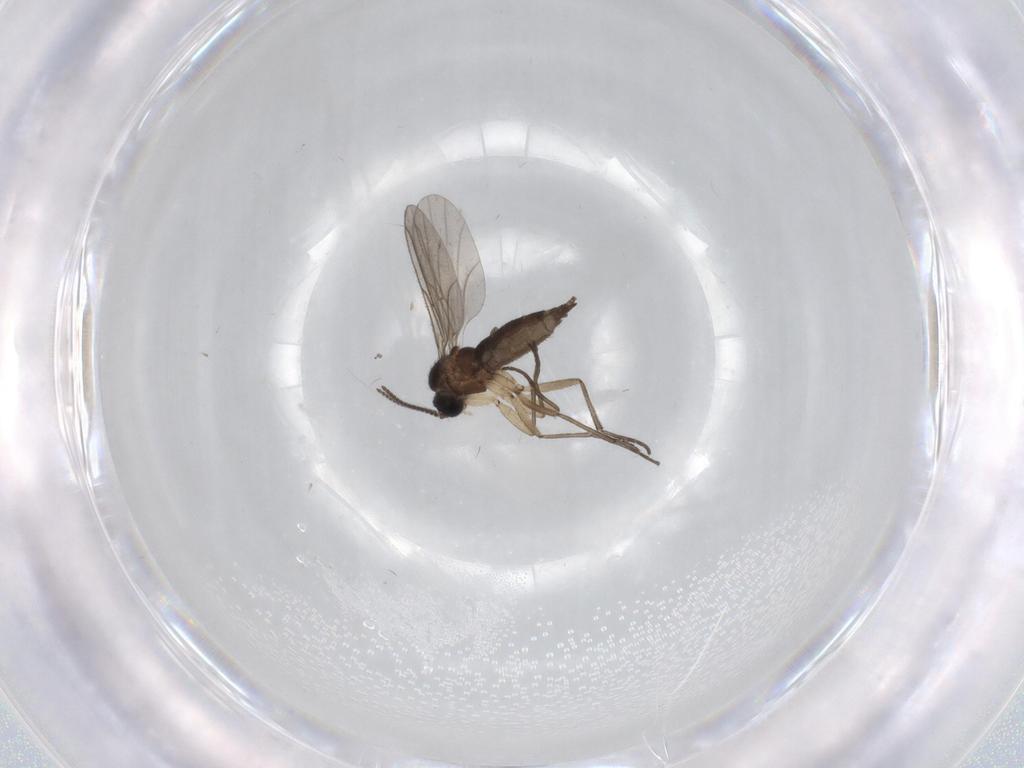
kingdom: Animalia
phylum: Arthropoda
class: Insecta
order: Diptera
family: Sciaridae
